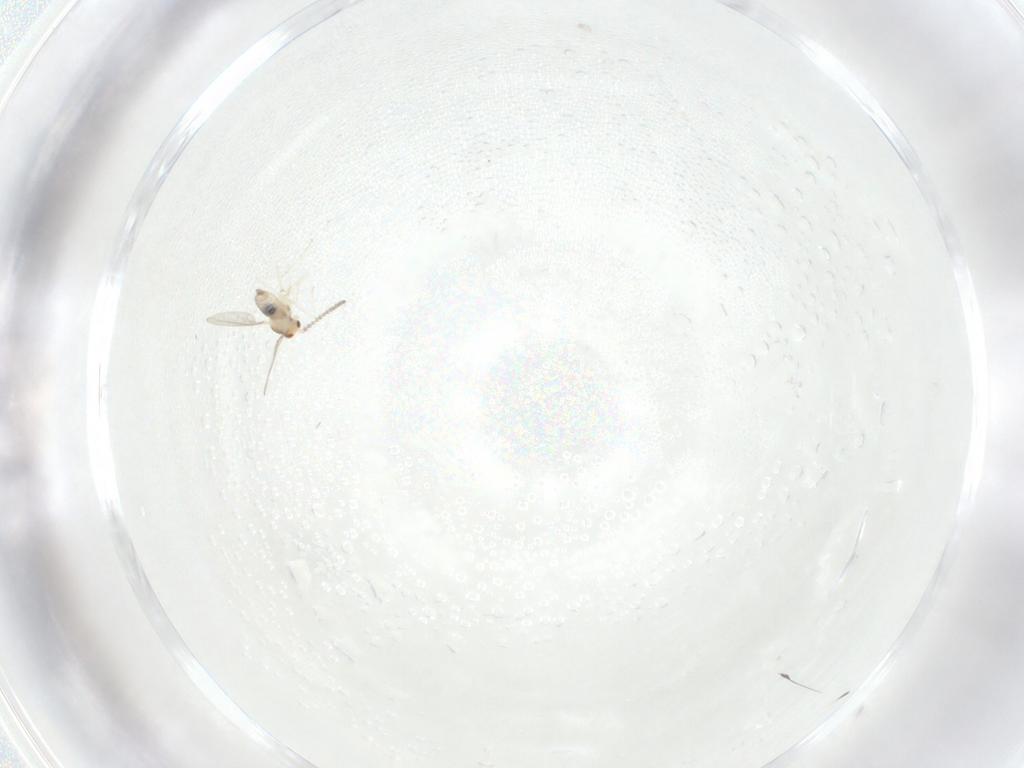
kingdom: Animalia
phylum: Arthropoda
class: Insecta
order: Diptera
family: Cecidomyiidae
